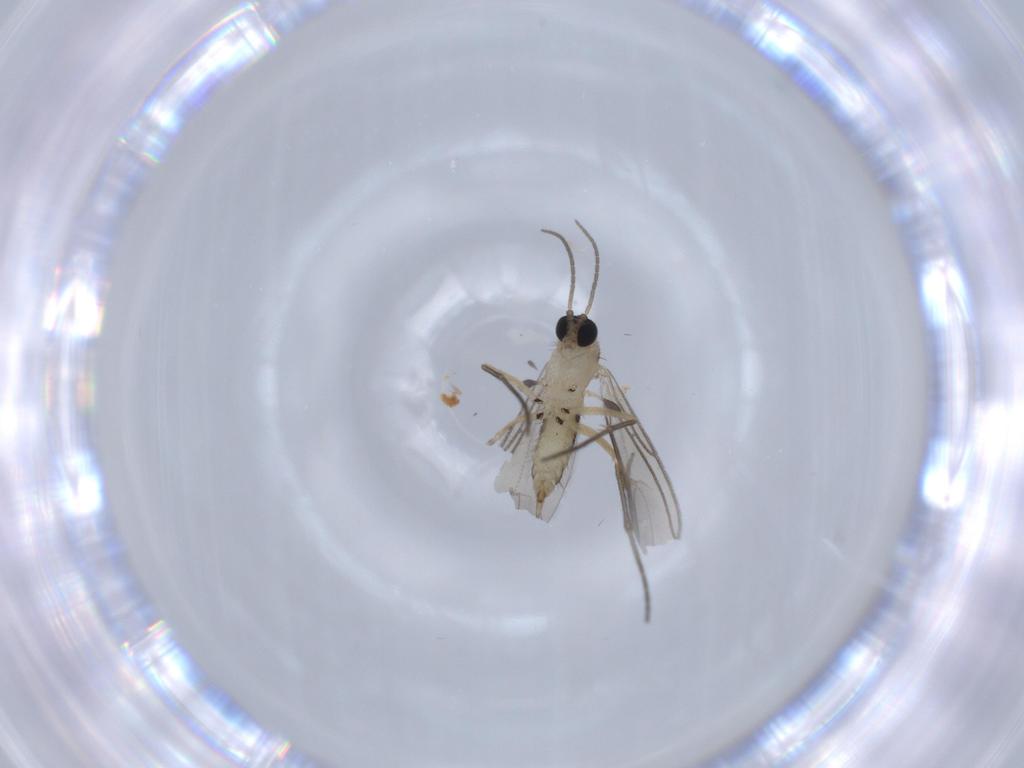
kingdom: Animalia
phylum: Arthropoda
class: Insecta
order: Diptera
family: Sciaridae
